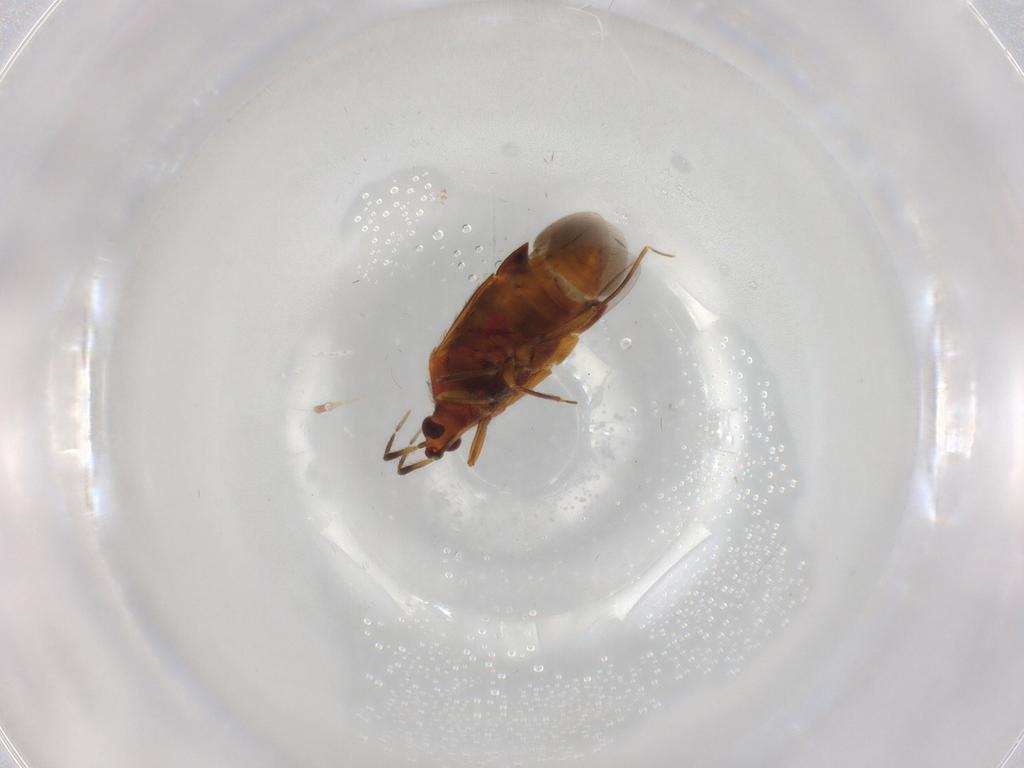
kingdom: Animalia
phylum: Arthropoda
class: Insecta
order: Hemiptera
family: Anthocoridae
